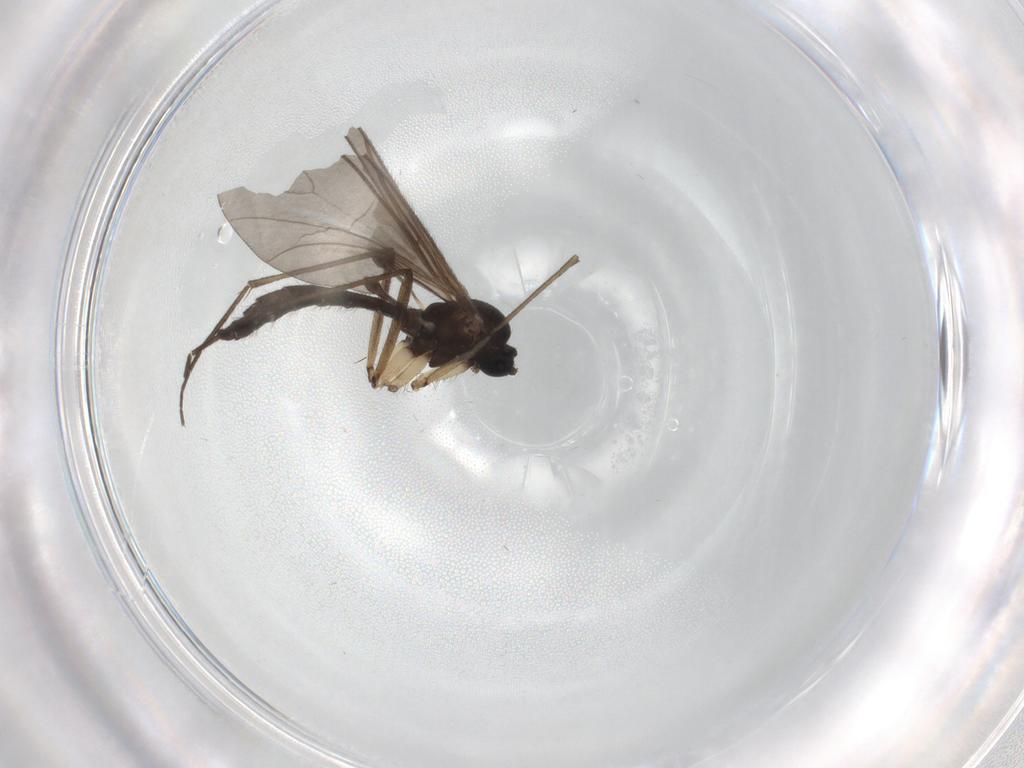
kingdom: Animalia
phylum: Arthropoda
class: Insecta
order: Diptera
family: Sciaridae
